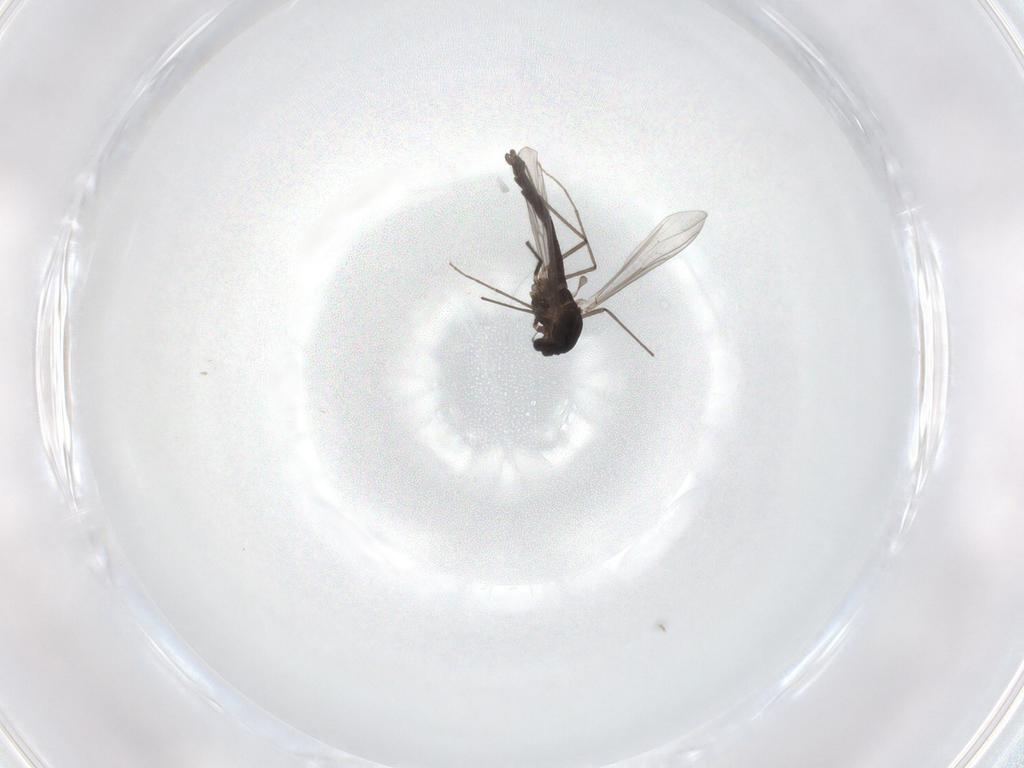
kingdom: Animalia
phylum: Arthropoda
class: Insecta
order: Diptera
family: Chironomidae
